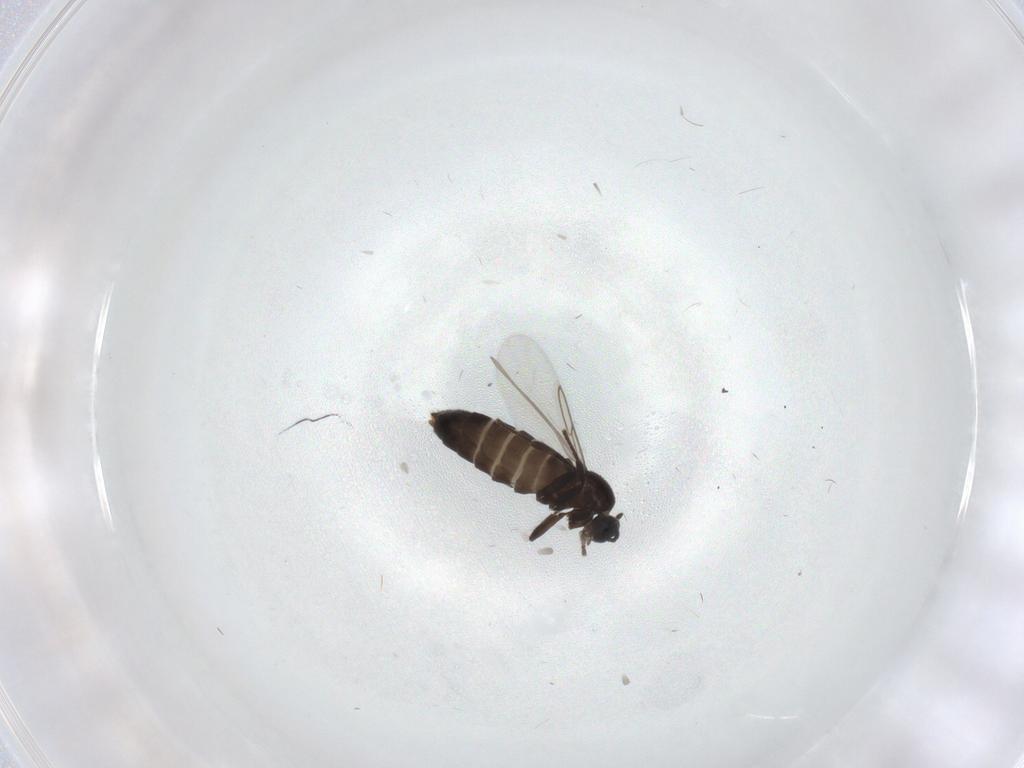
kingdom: Animalia
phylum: Arthropoda
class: Insecta
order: Diptera
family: Scatopsidae
